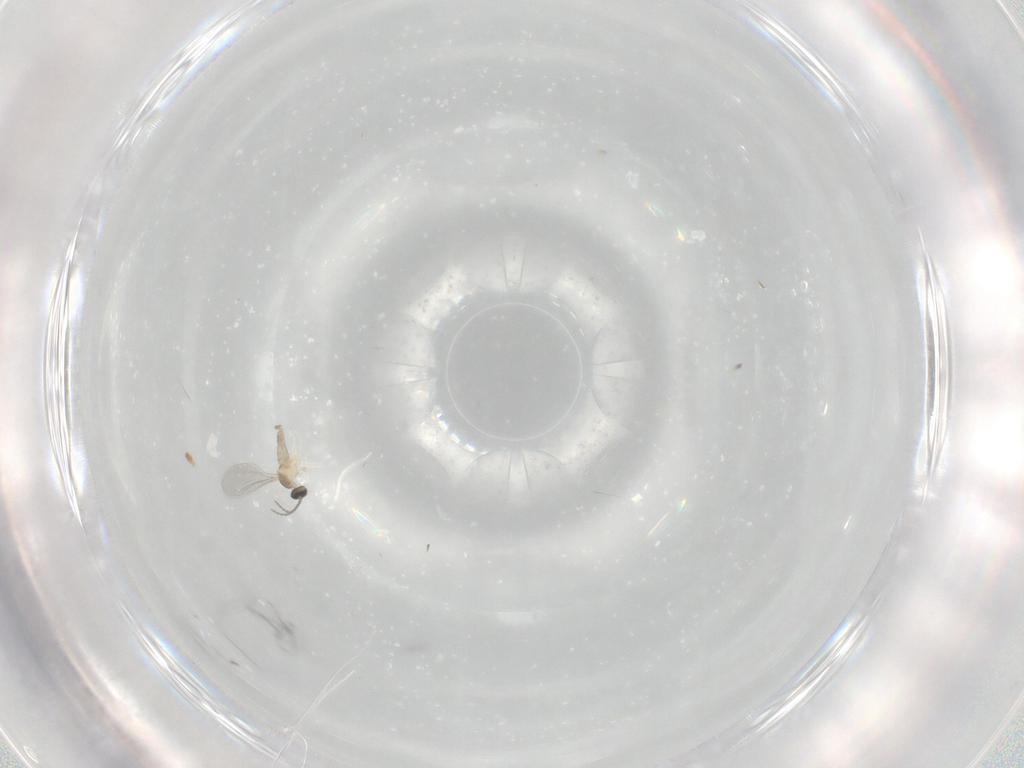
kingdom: Animalia
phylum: Arthropoda
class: Insecta
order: Diptera
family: Cecidomyiidae
